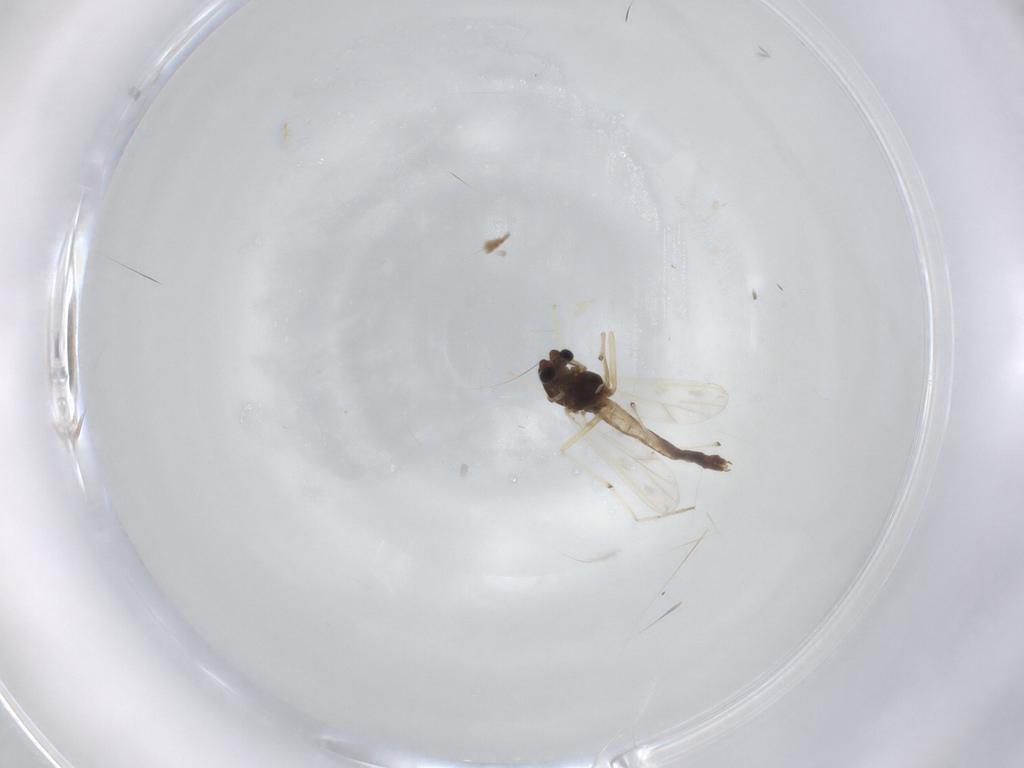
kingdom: Animalia
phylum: Arthropoda
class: Insecta
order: Diptera
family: Sciaridae
